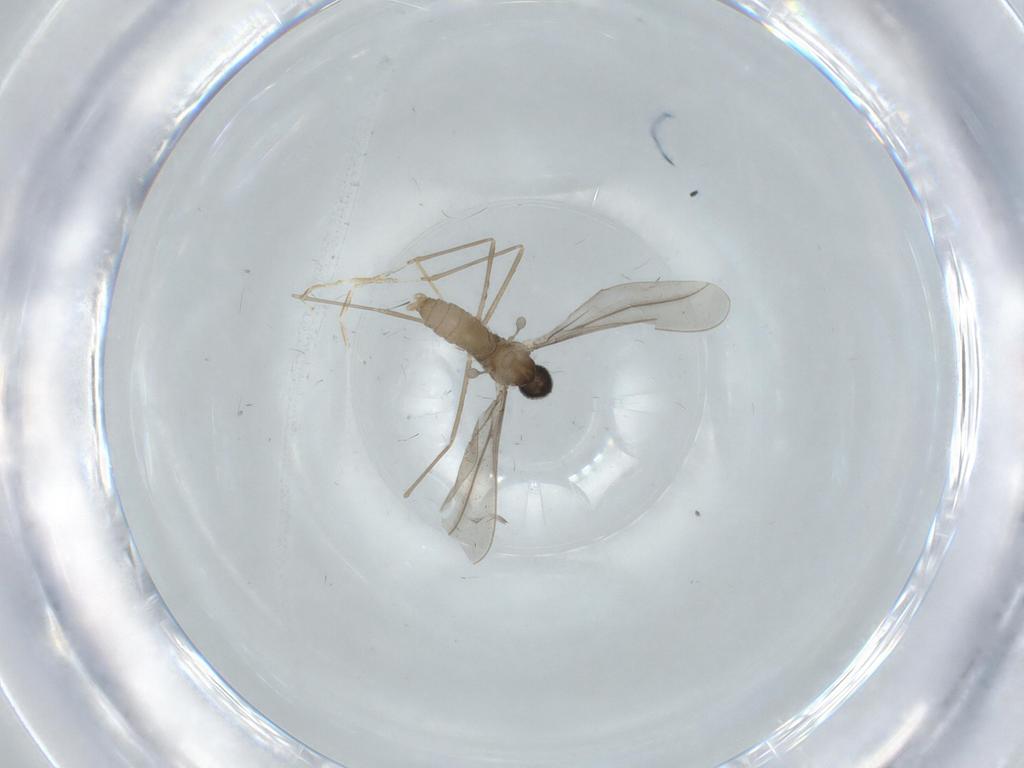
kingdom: Animalia
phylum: Arthropoda
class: Insecta
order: Diptera
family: Cecidomyiidae
